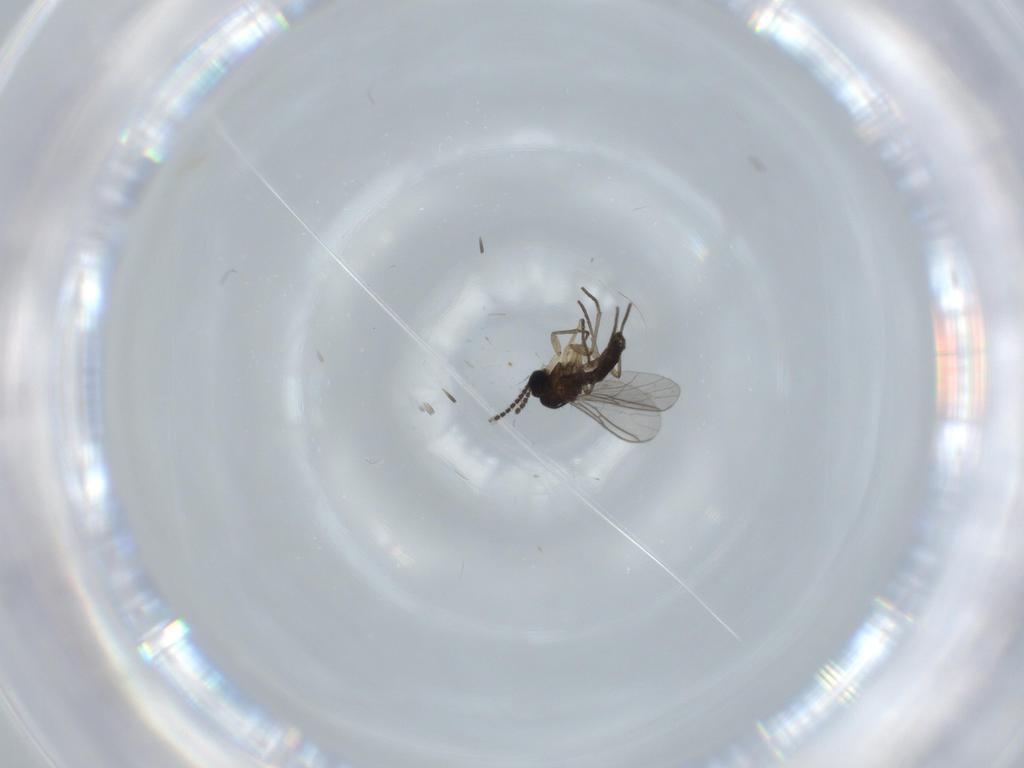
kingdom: Animalia
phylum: Arthropoda
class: Insecta
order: Diptera
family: Sciaridae
